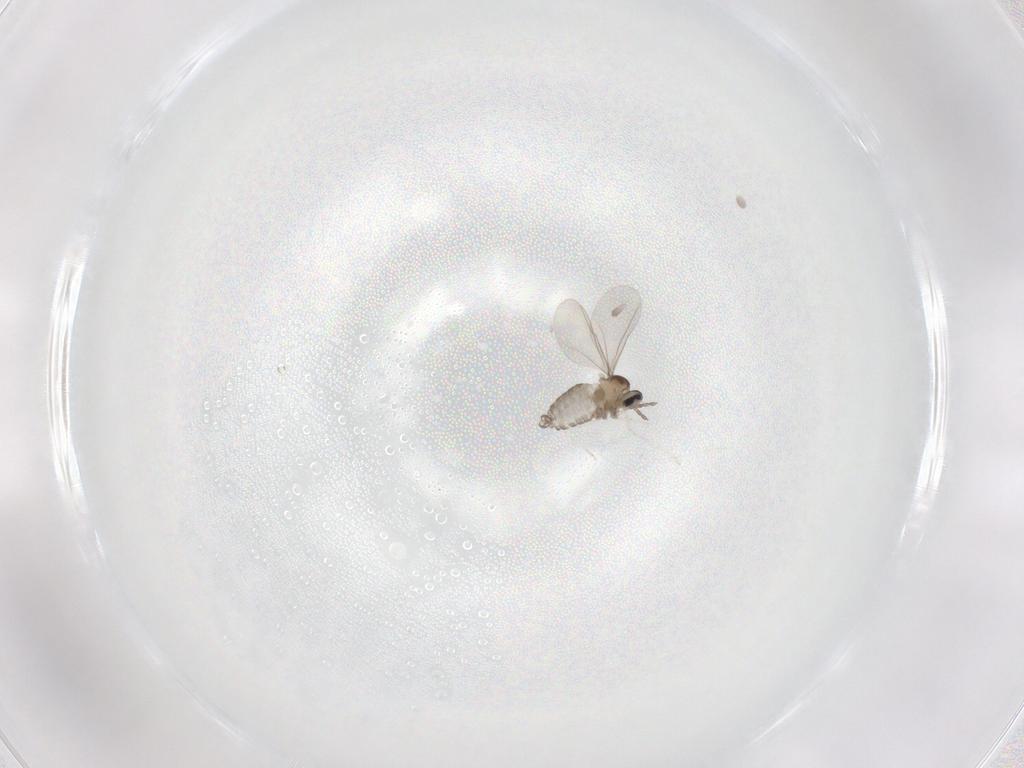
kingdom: Animalia
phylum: Arthropoda
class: Insecta
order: Diptera
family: Cecidomyiidae
